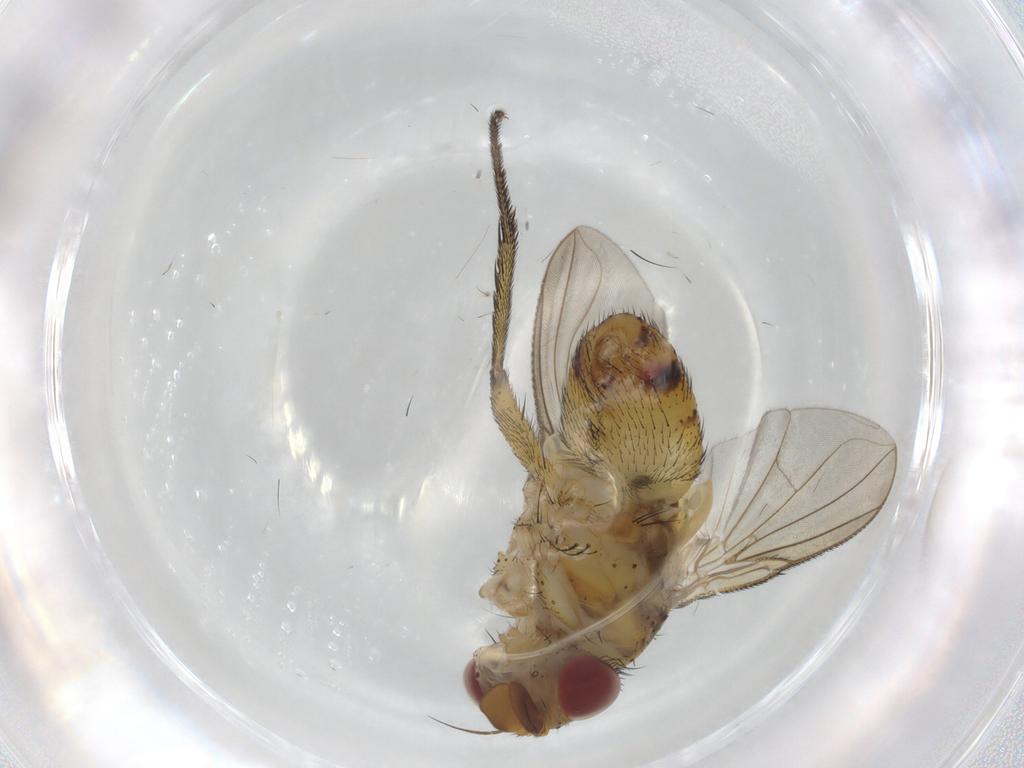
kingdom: Animalia
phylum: Arthropoda
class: Insecta
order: Diptera
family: Tachinidae
